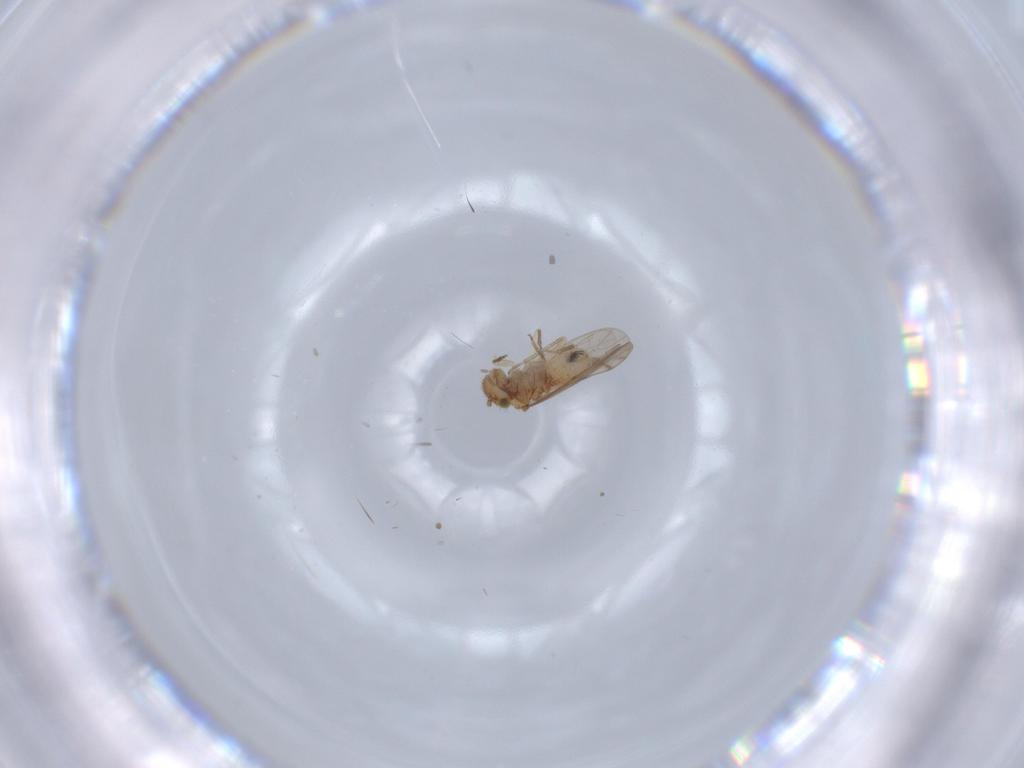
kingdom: Animalia
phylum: Arthropoda
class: Insecta
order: Psocodea
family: Ectopsocidae
